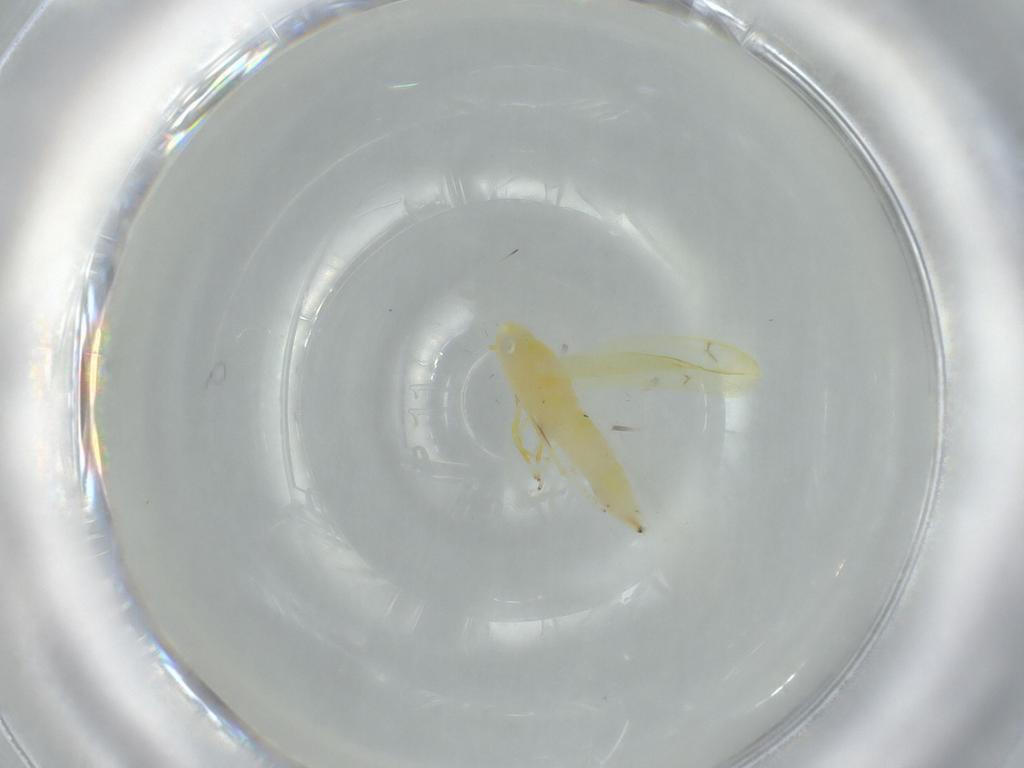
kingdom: Animalia
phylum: Arthropoda
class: Insecta
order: Hemiptera
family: Cicadellidae
